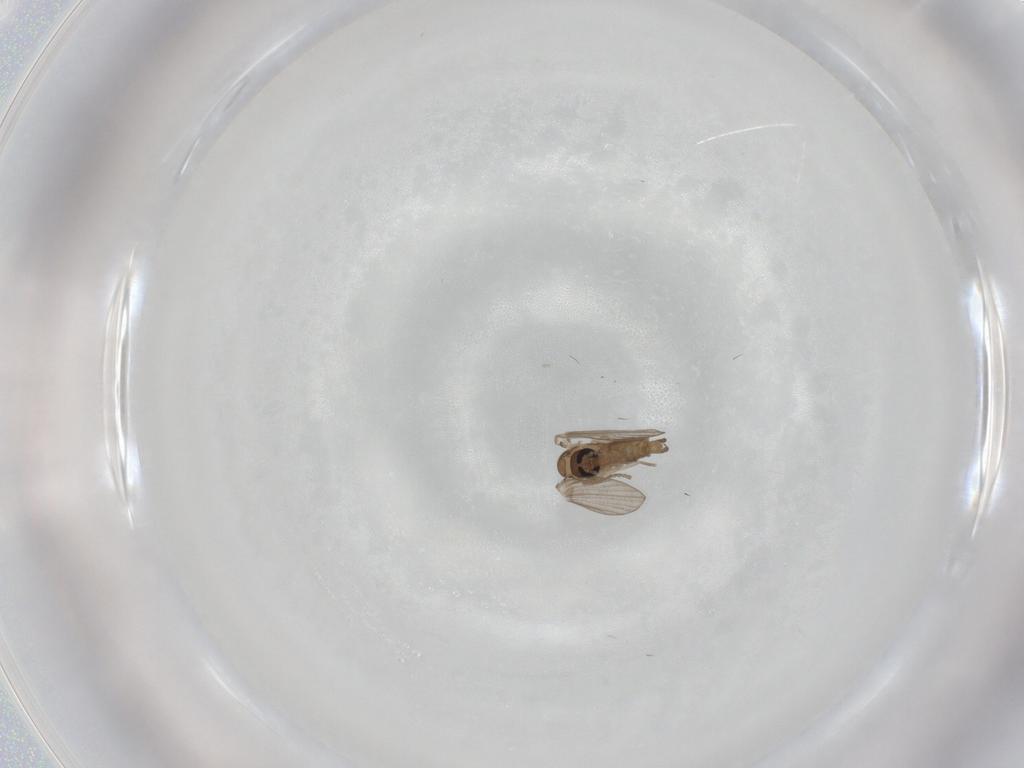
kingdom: Animalia
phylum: Arthropoda
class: Insecta
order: Diptera
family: Psychodidae
